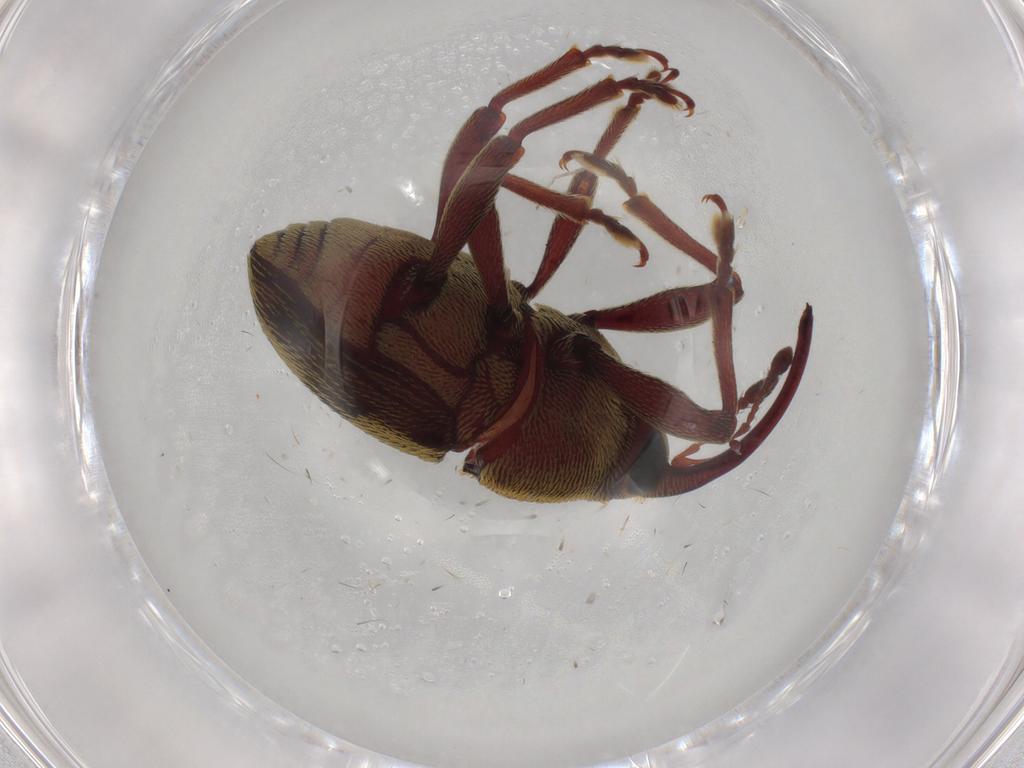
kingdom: Animalia
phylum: Arthropoda
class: Insecta
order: Coleoptera
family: Curculionidae
